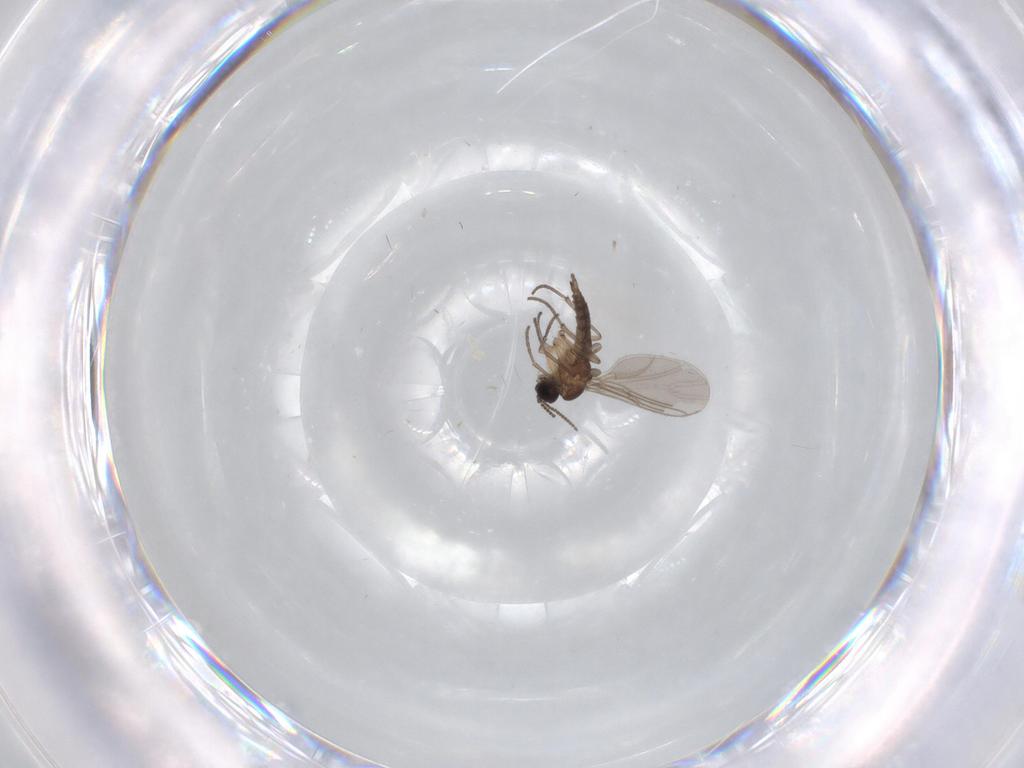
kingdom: Animalia
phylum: Arthropoda
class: Insecta
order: Diptera
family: Sciaridae
